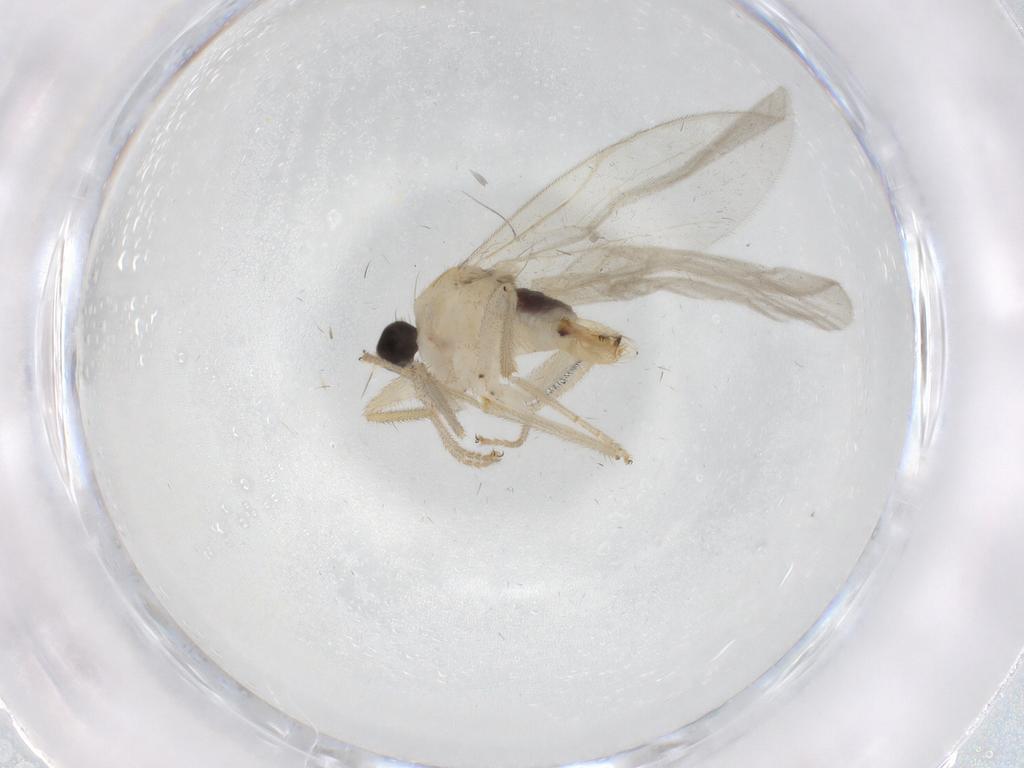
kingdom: Animalia
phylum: Arthropoda
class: Insecta
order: Diptera
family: Hybotidae
